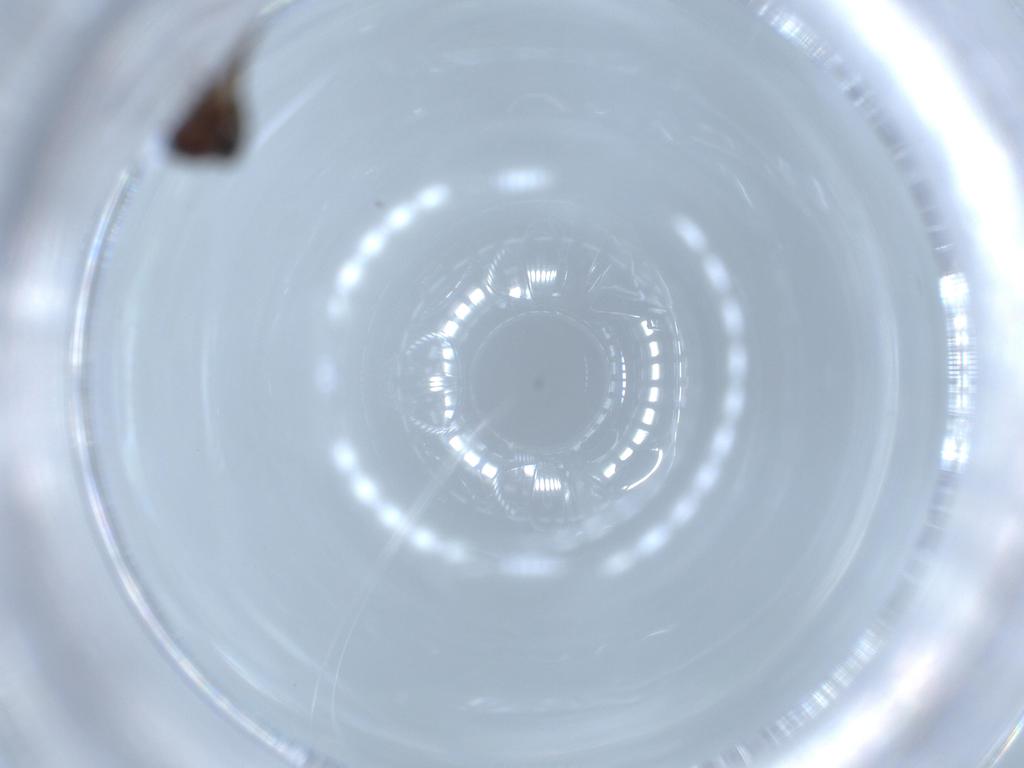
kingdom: Animalia
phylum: Arthropoda
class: Insecta
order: Diptera
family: Ceratopogonidae
